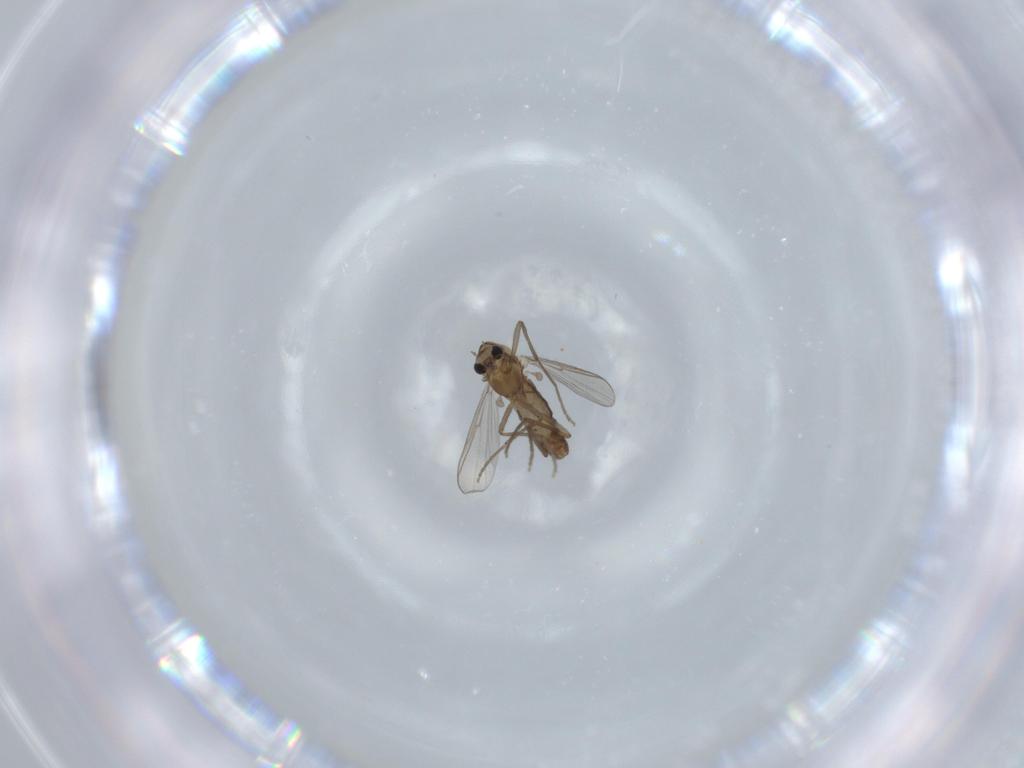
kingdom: Animalia
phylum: Arthropoda
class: Insecta
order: Diptera
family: Chironomidae
